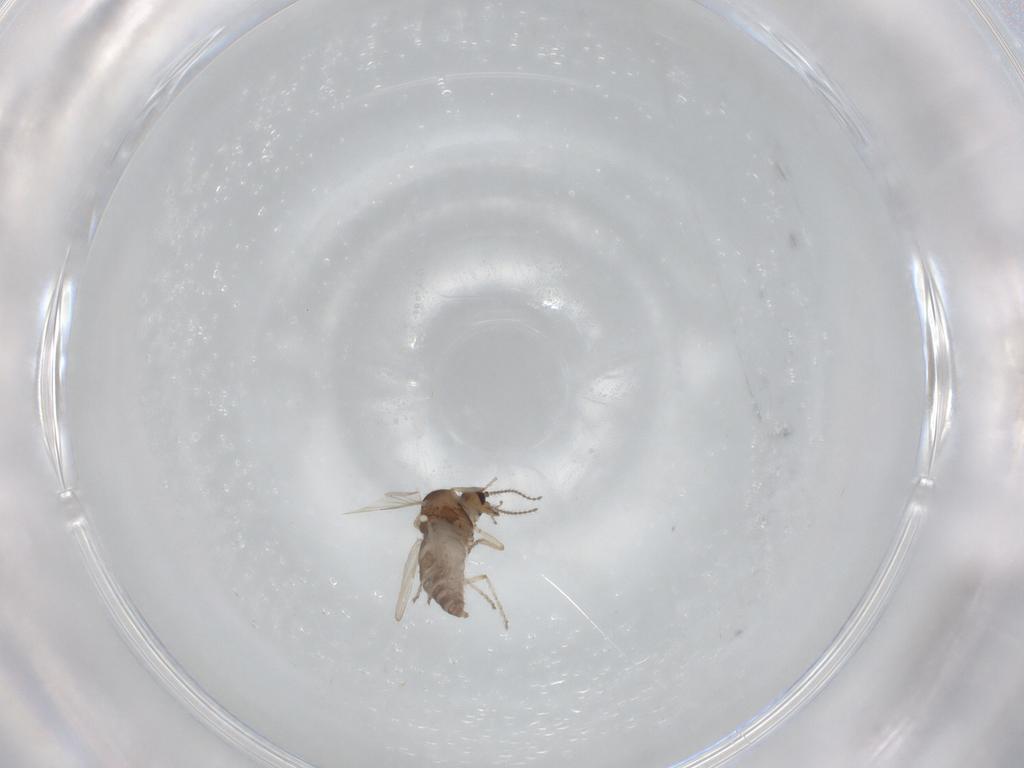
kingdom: Animalia
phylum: Arthropoda
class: Insecta
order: Diptera
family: Ceratopogonidae
